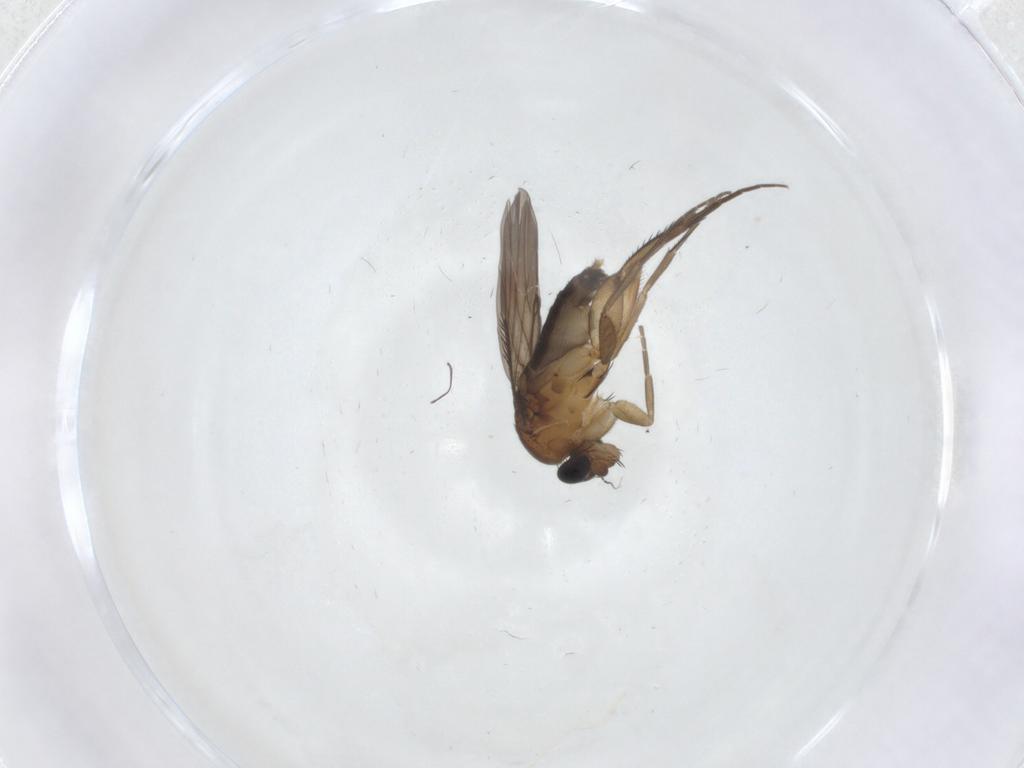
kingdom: Animalia
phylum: Arthropoda
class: Insecta
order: Diptera
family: Phoridae
